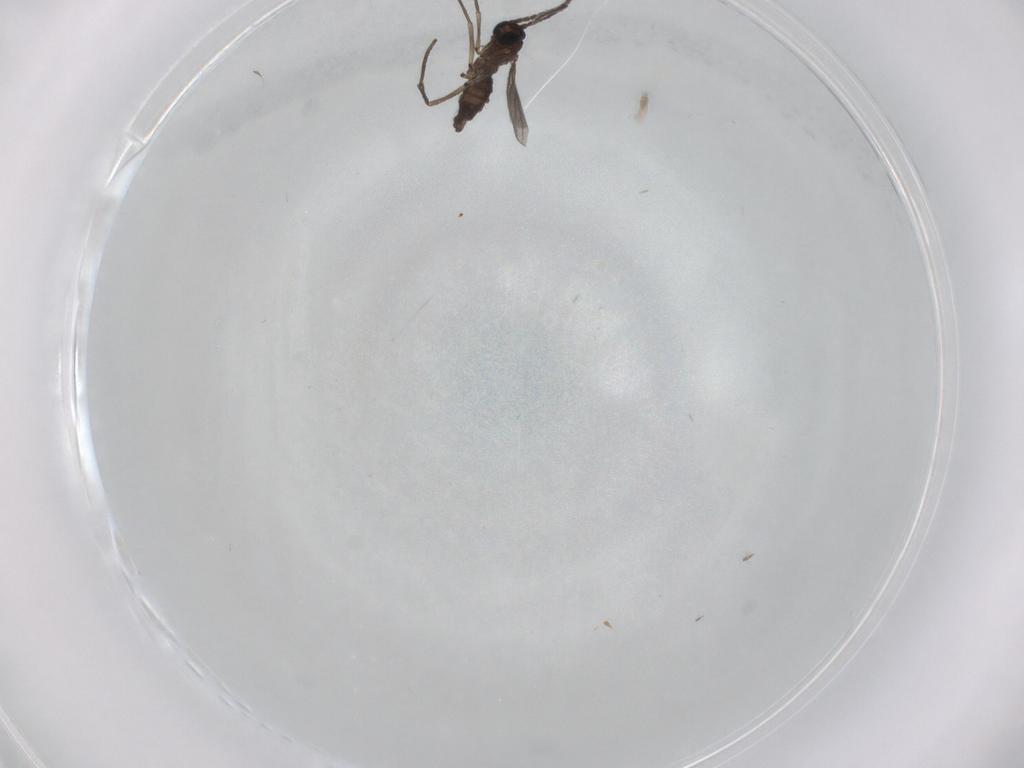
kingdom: Animalia
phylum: Arthropoda
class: Insecta
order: Diptera
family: Sciaridae
